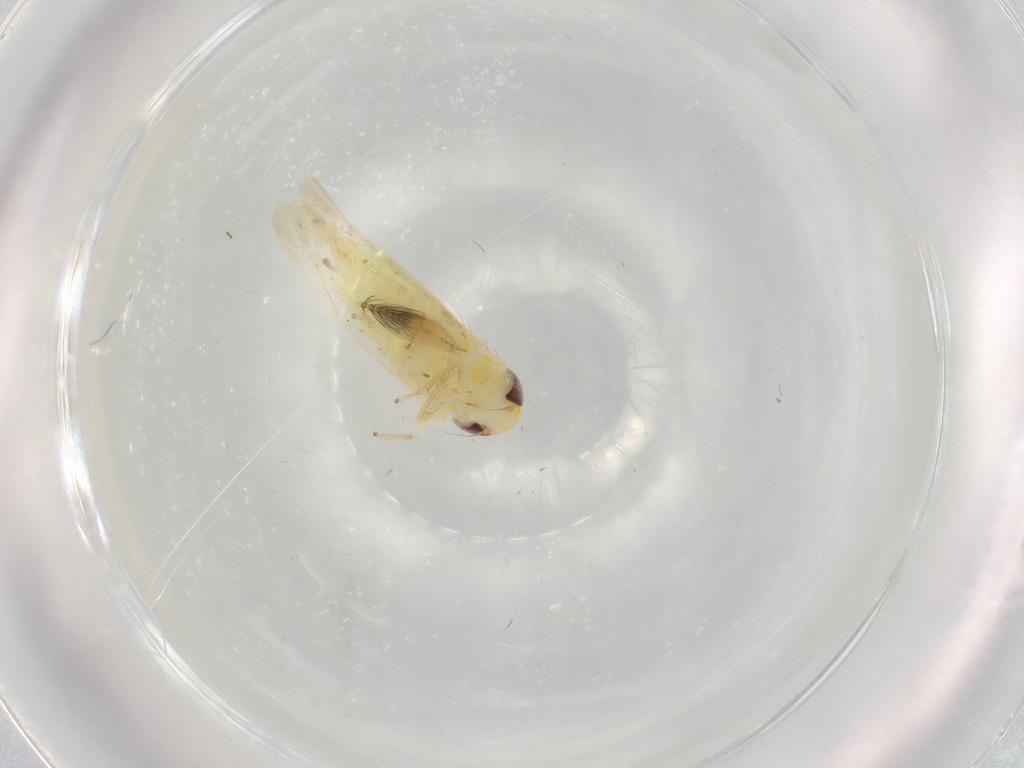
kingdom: Animalia
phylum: Arthropoda
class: Insecta
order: Hemiptera
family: Cicadellidae
